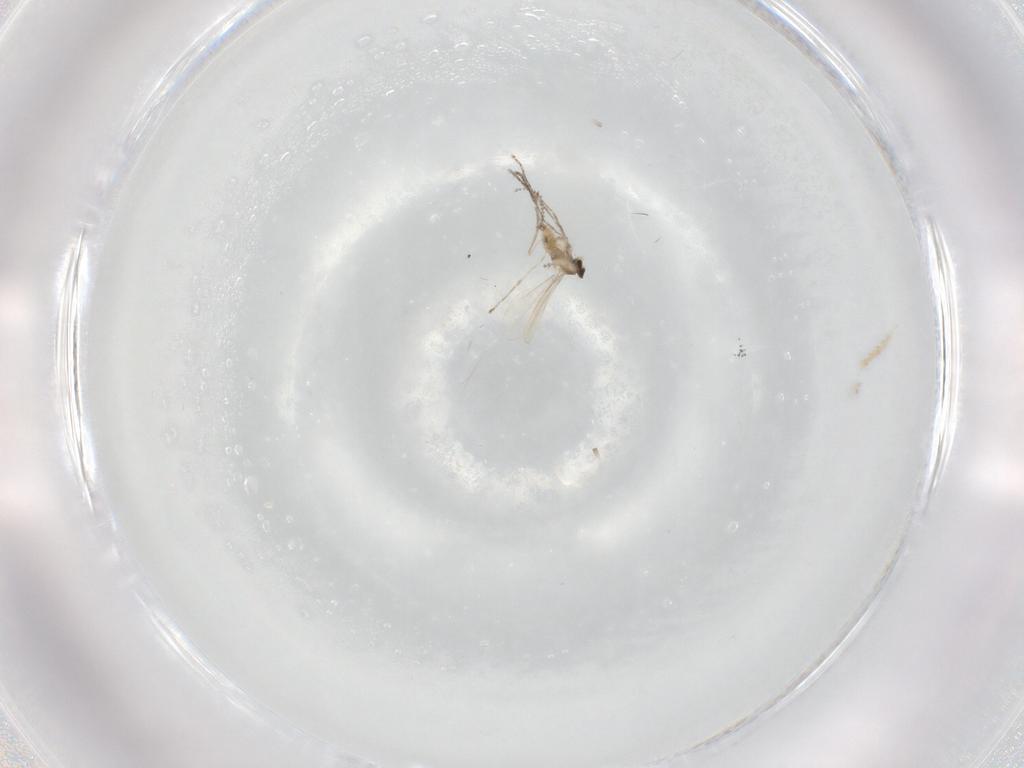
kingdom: Animalia
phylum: Arthropoda
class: Insecta
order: Diptera
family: Cecidomyiidae
